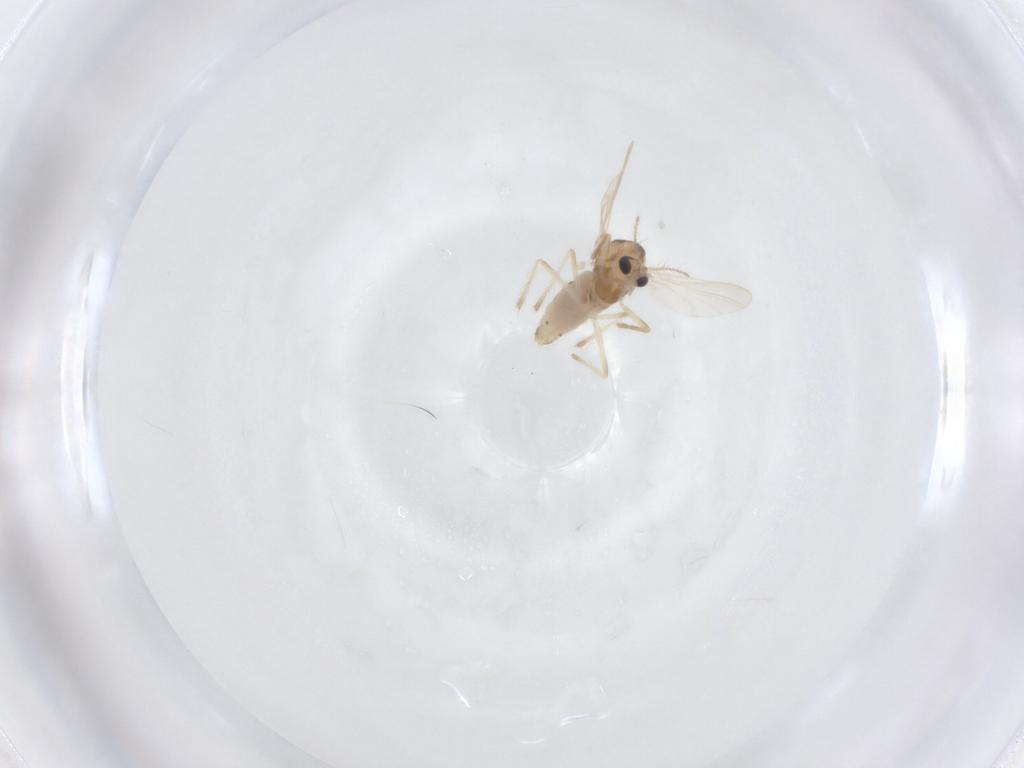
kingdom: Animalia
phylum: Arthropoda
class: Insecta
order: Diptera
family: Chironomidae
